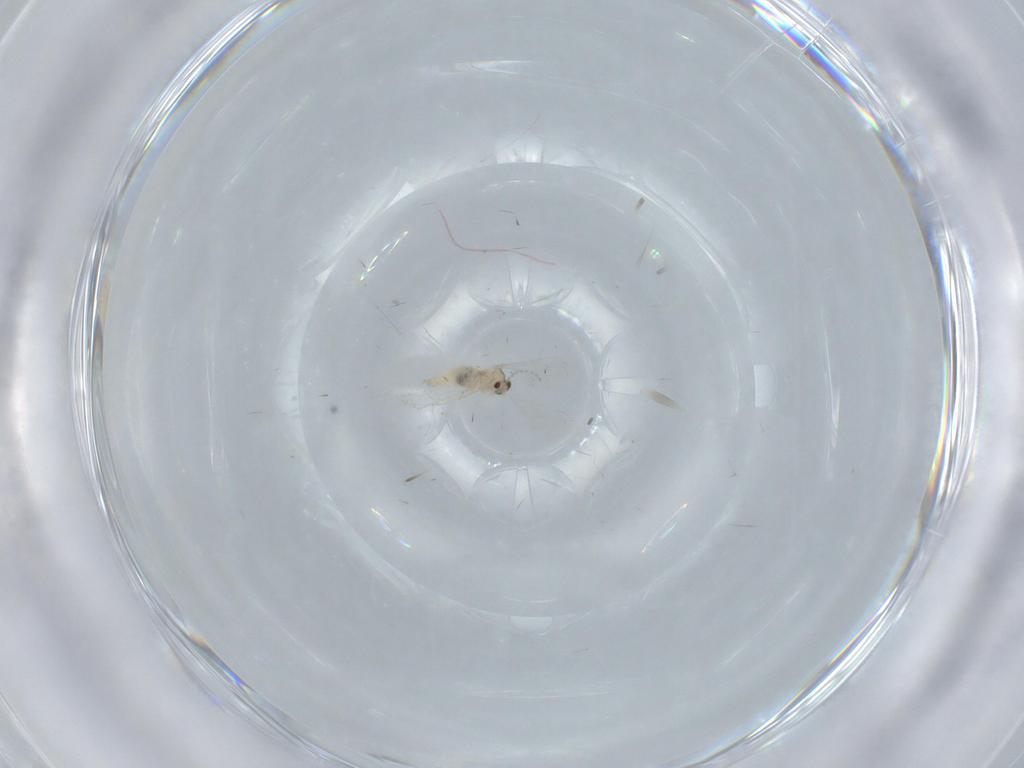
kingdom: Animalia
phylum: Arthropoda
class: Insecta
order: Diptera
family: Cecidomyiidae
